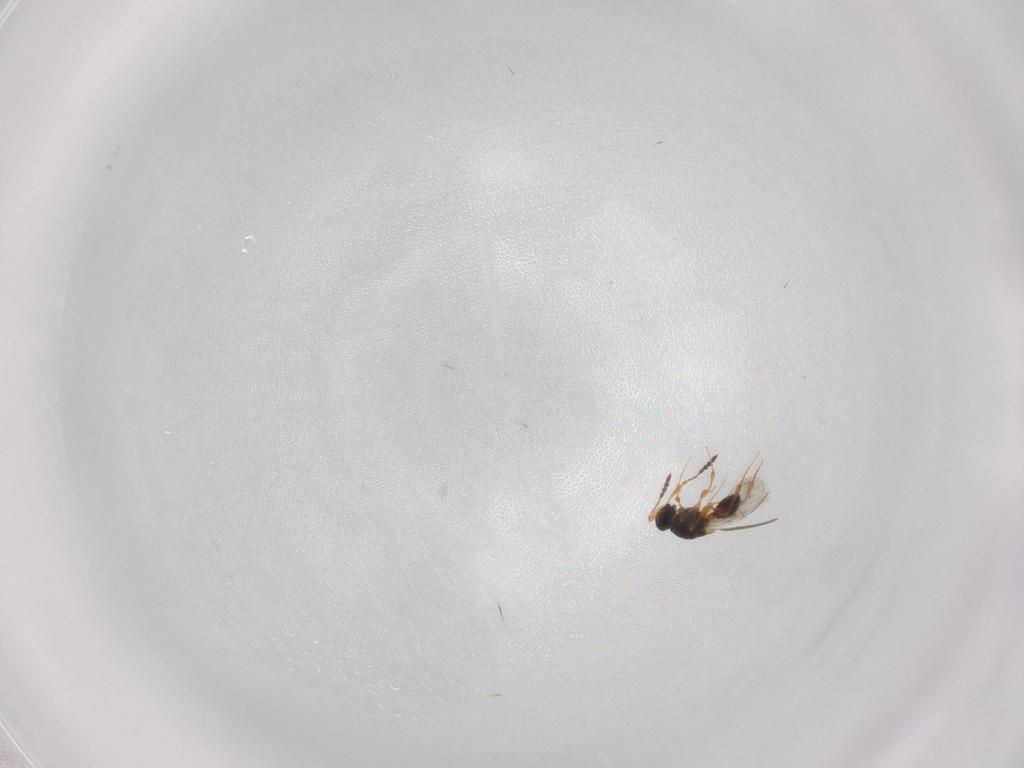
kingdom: Animalia
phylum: Arthropoda
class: Insecta
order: Hymenoptera
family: Platygastridae
